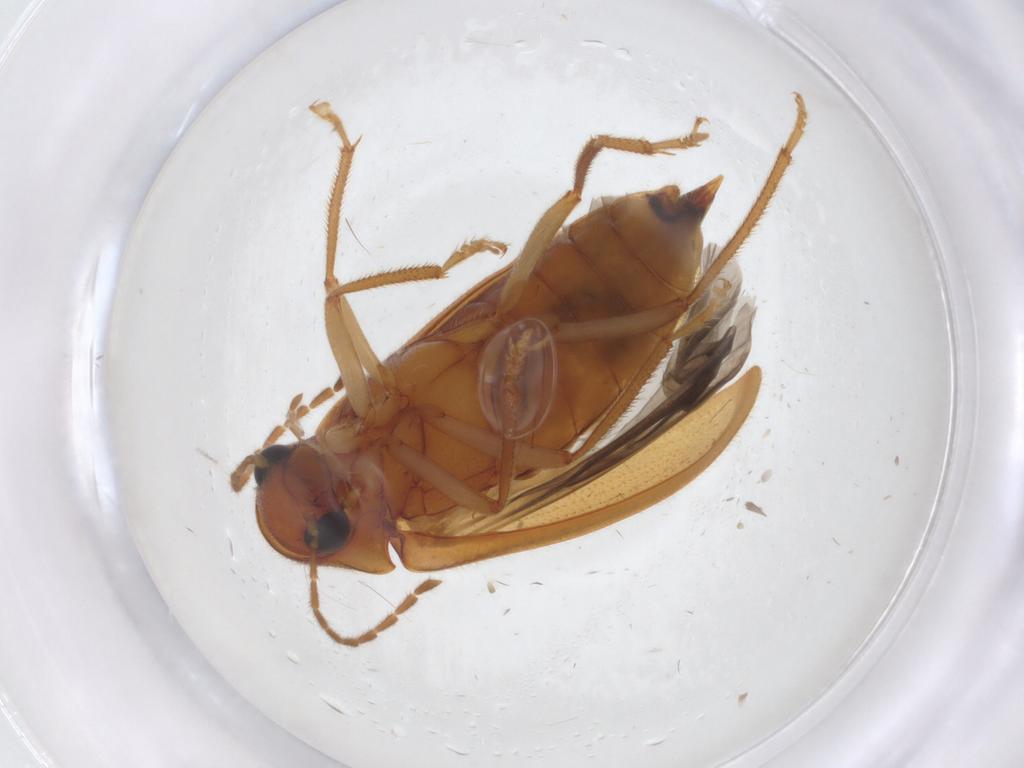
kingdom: Animalia
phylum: Arthropoda
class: Insecta
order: Coleoptera
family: Ptilodactylidae
